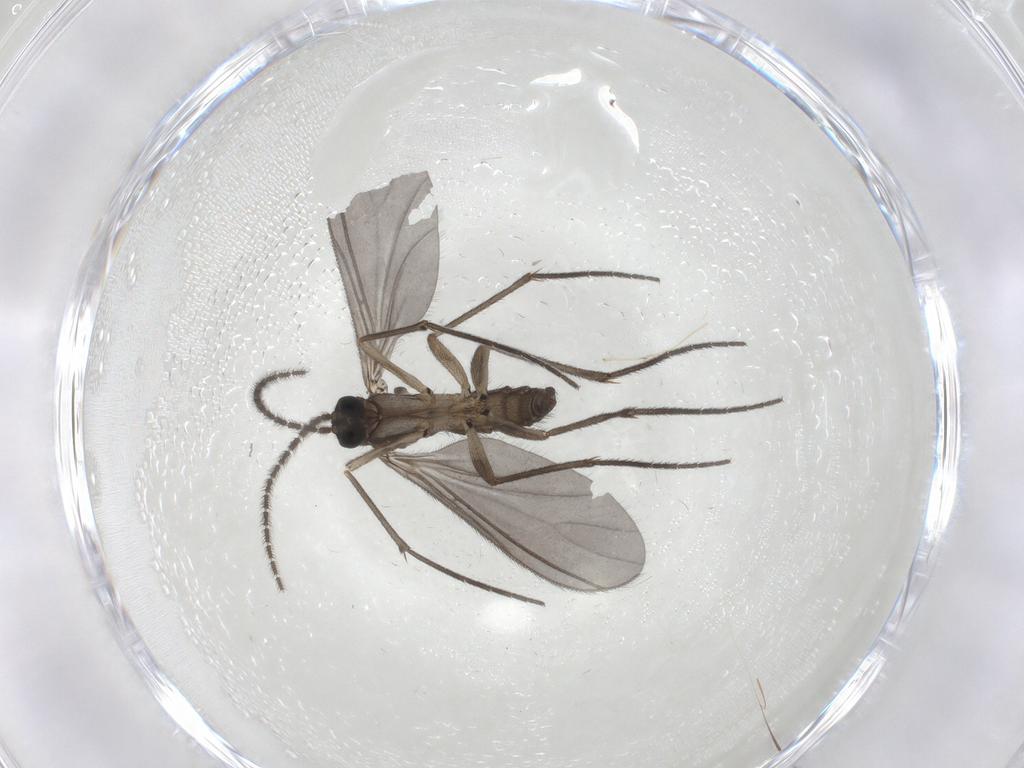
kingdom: Animalia
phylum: Arthropoda
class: Insecta
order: Diptera
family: Sciaridae
